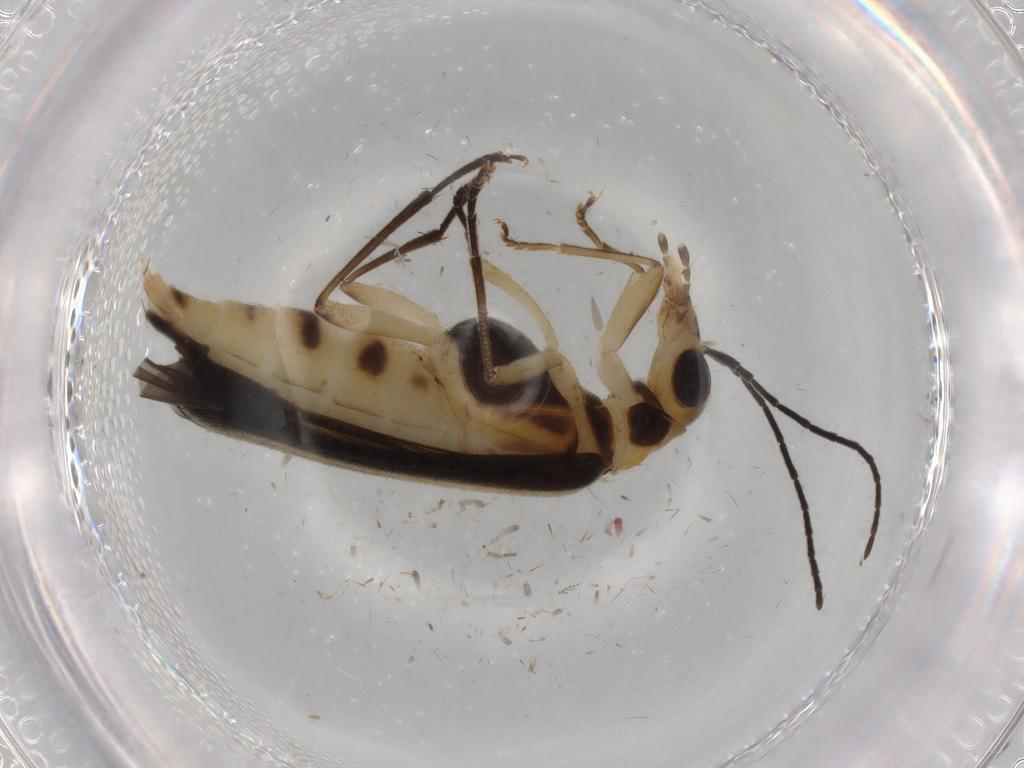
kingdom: Animalia
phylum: Arthropoda
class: Insecta
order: Coleoptera
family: Oedemeridae
